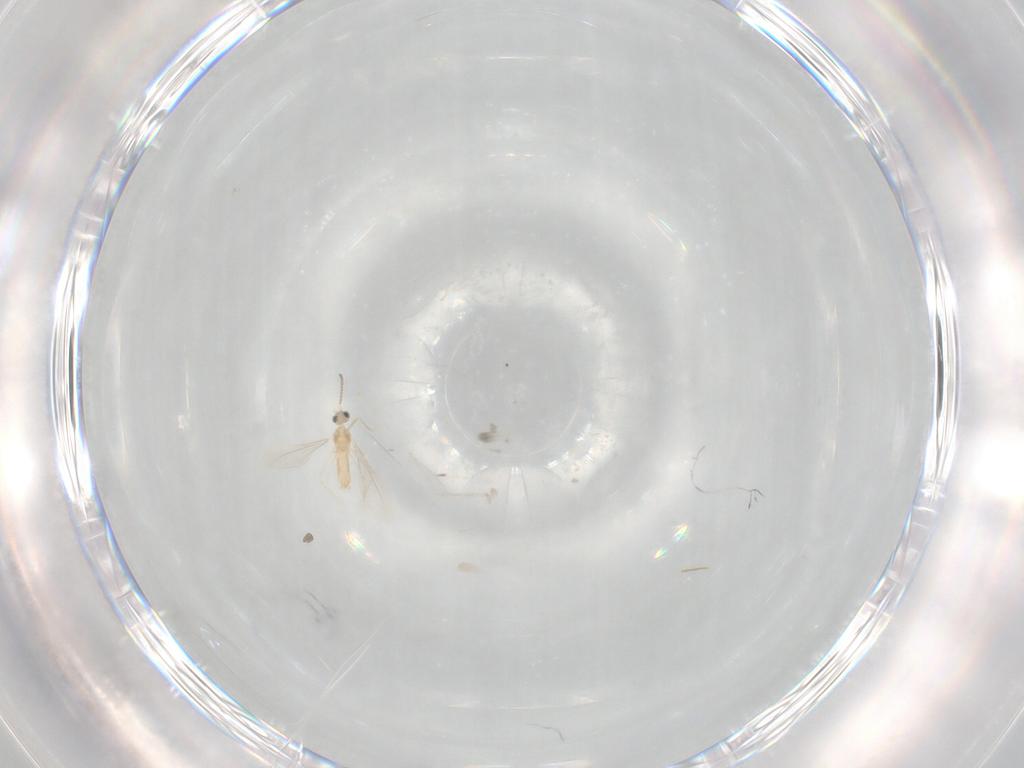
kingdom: Animalia
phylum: Arthropoda
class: Insecta
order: Diptera
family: Cecidomyiidae
